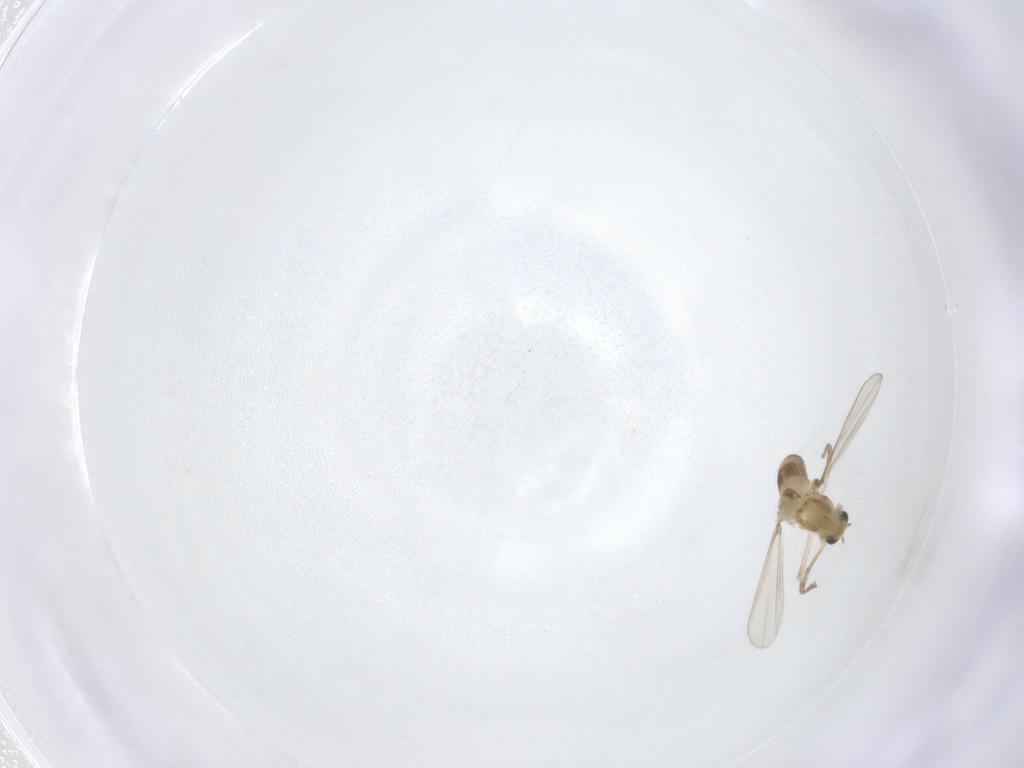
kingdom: Animalia
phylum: Arthropoda
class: Insecta
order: Diptera
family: Chironomidae
